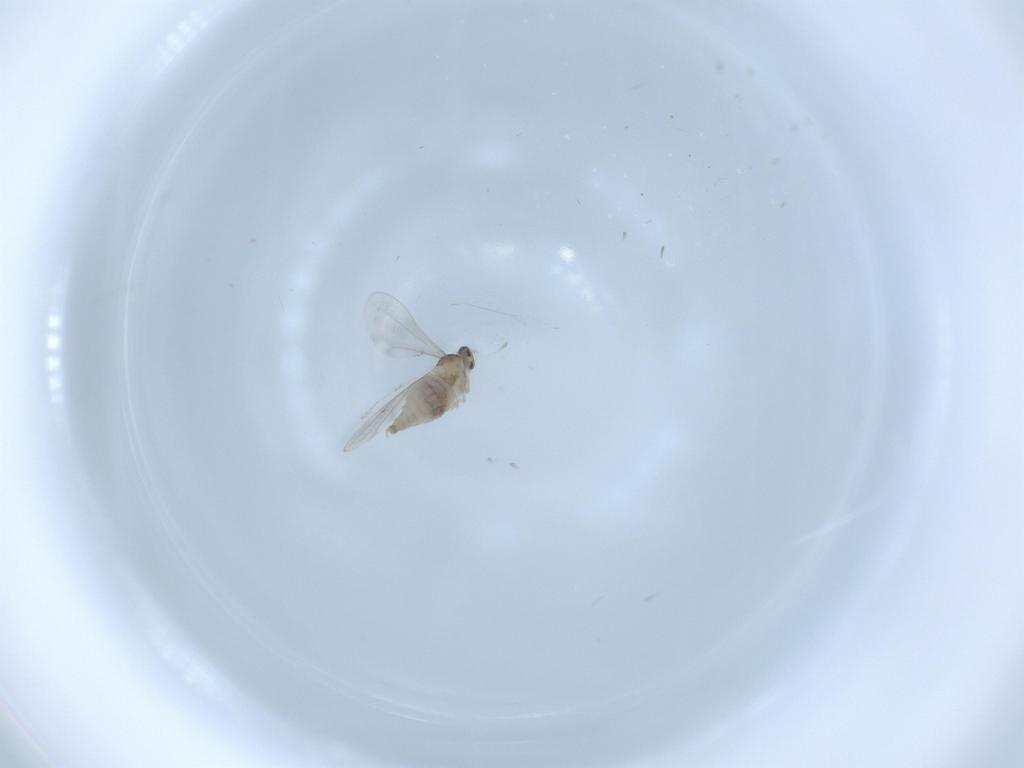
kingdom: Animalia
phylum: Arthropoda
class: Insecta
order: Diptera
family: Cecidomyiidae
